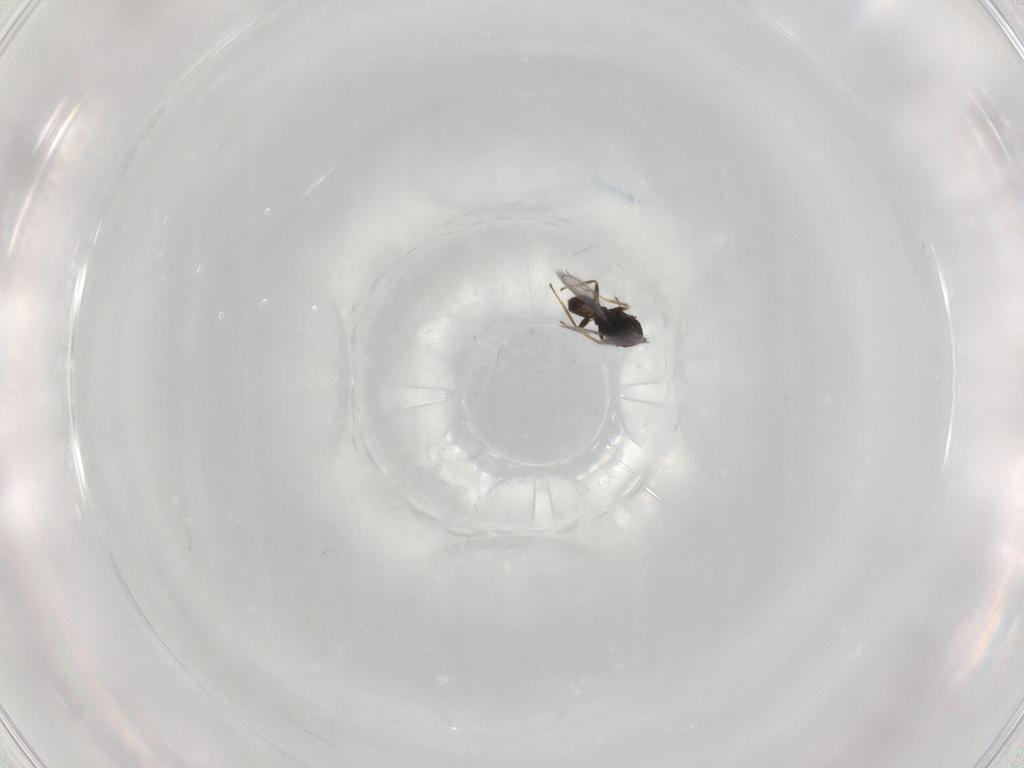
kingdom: Animalia
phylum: Arthropoda
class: Insecta
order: Hymenoptera
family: Eulophidae
